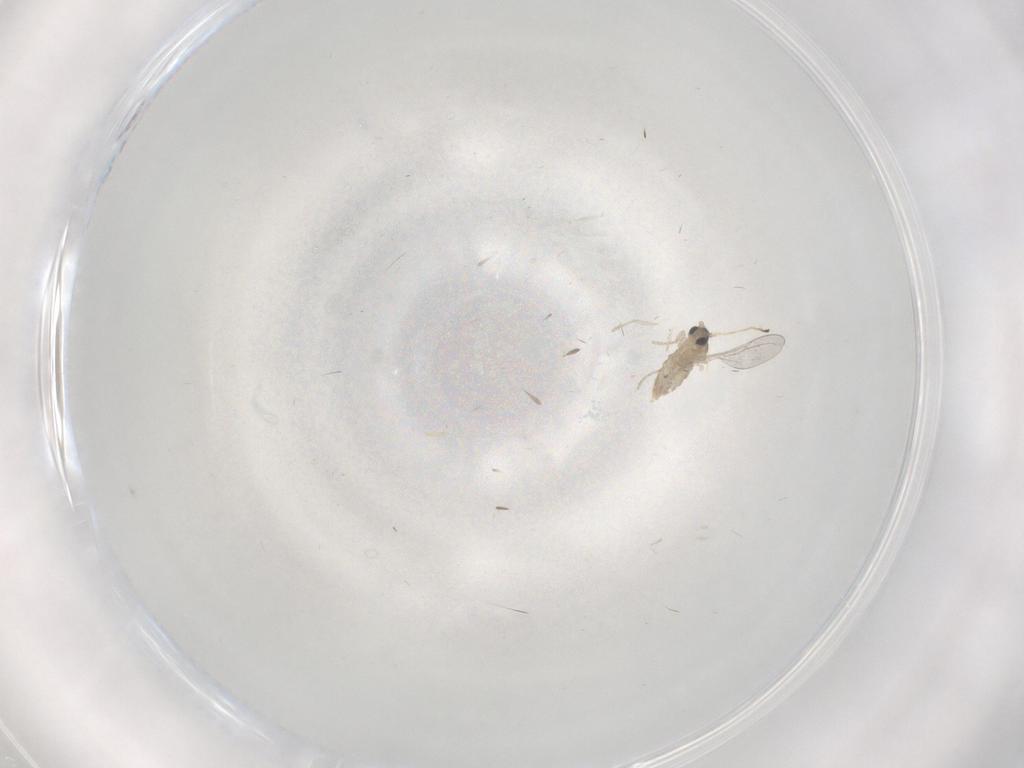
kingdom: Animalia
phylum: Arthropoda
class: Insecta
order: Diptera
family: Cecidomyiidae
